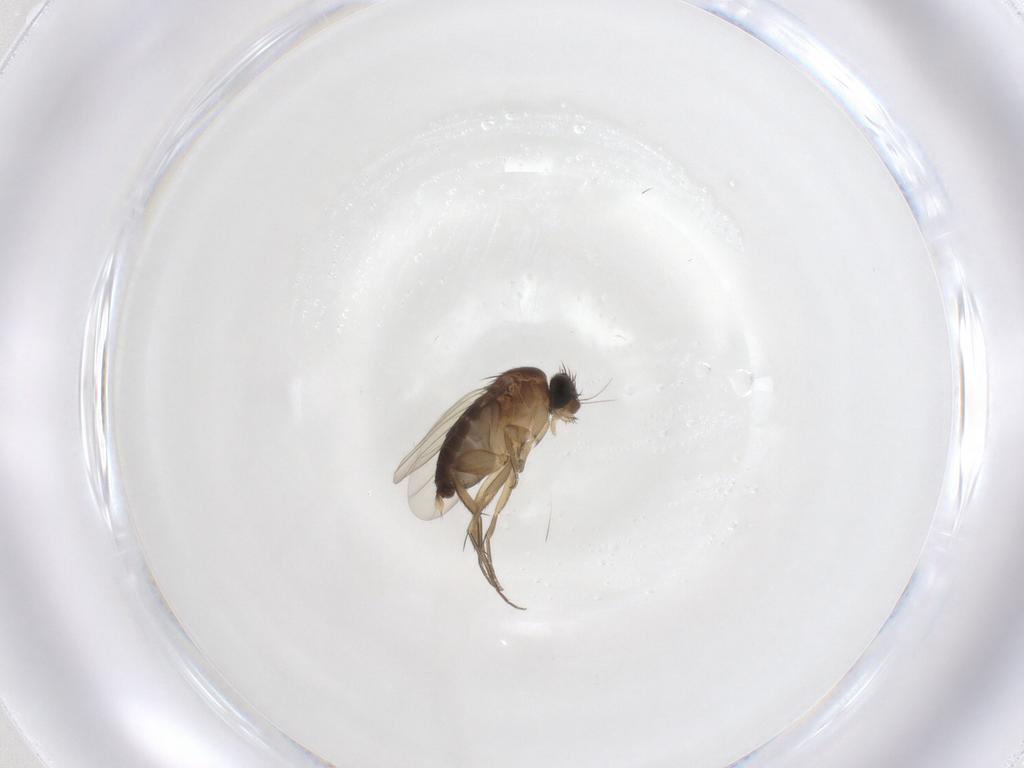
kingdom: Animalia
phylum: Arthropoda
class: Insecta
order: Diptera
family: Phoridae
